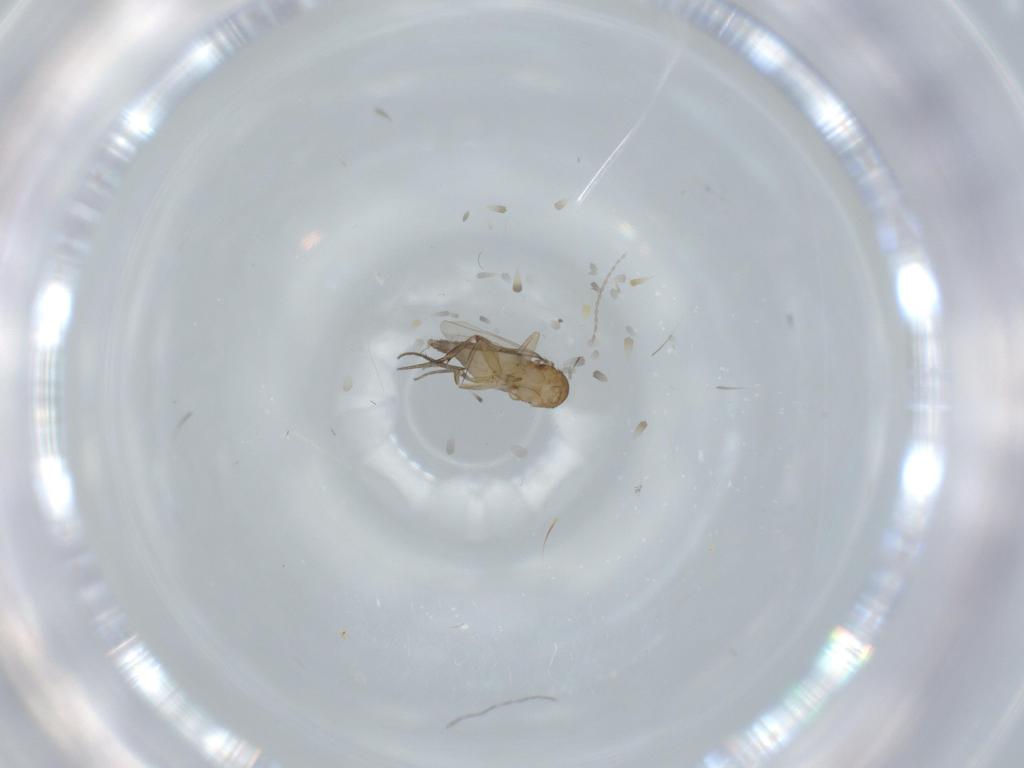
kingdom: Animalia
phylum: Arthropoda
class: Insecta
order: Diptera
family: Phoridae
